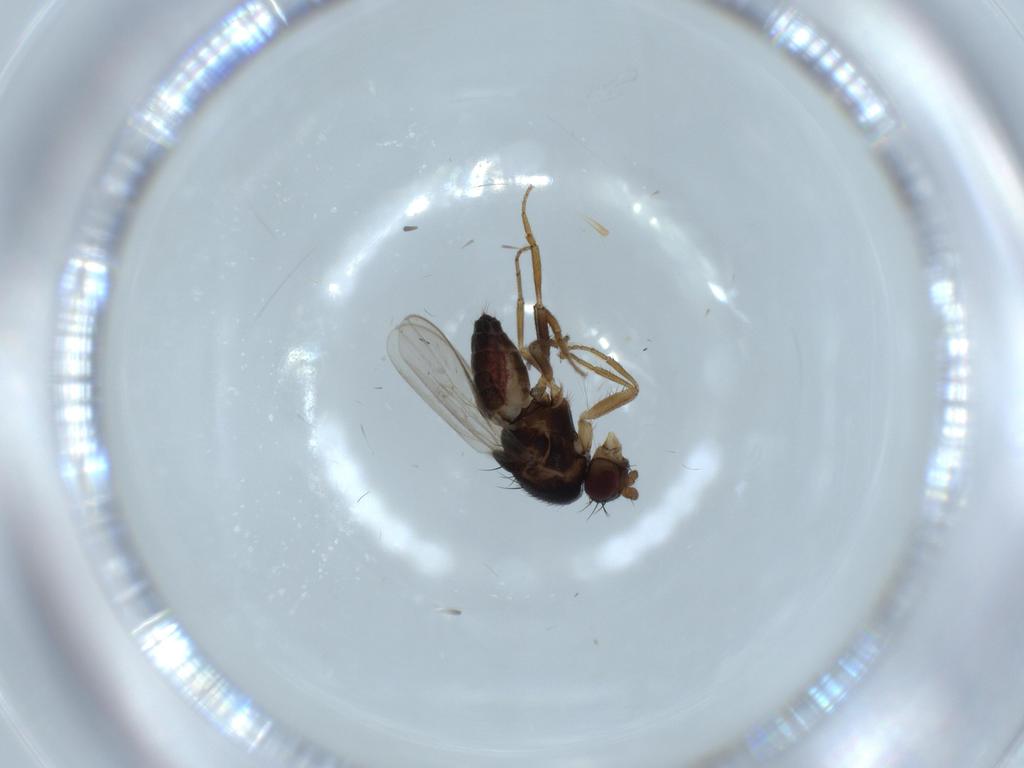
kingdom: Animalia
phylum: Arthropoda
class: Insecta
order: Diptera
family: Sphaeroceridae
